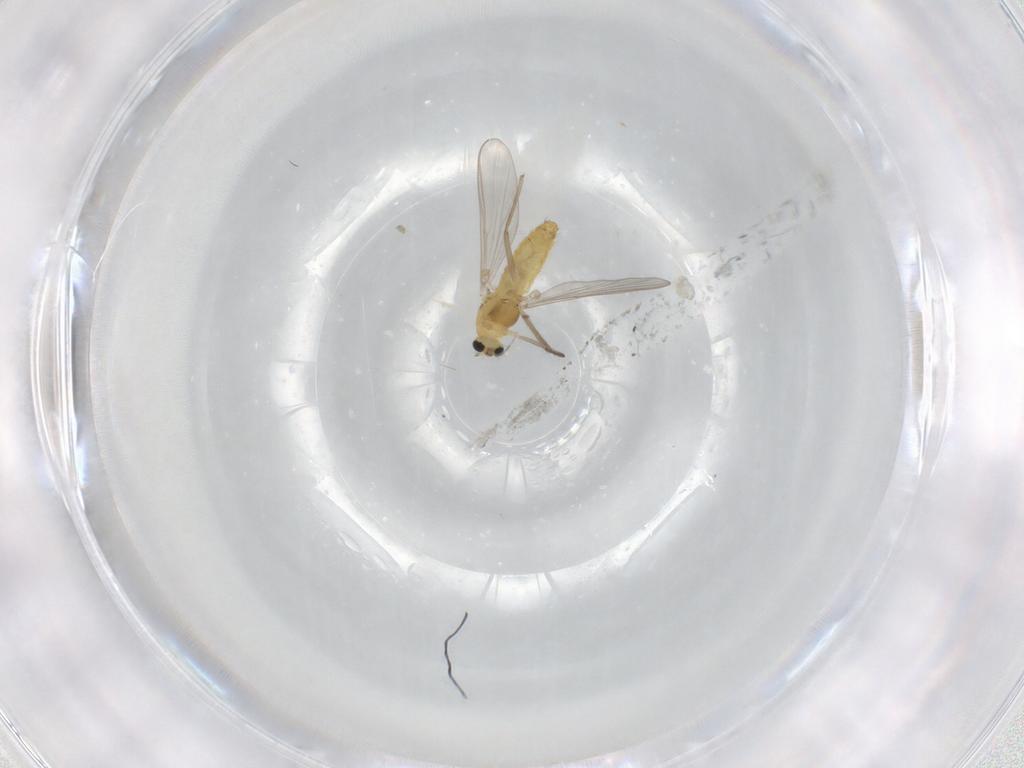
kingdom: Animalia
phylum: Arthropoda
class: Insecta
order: Diptera
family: Chironomidae
